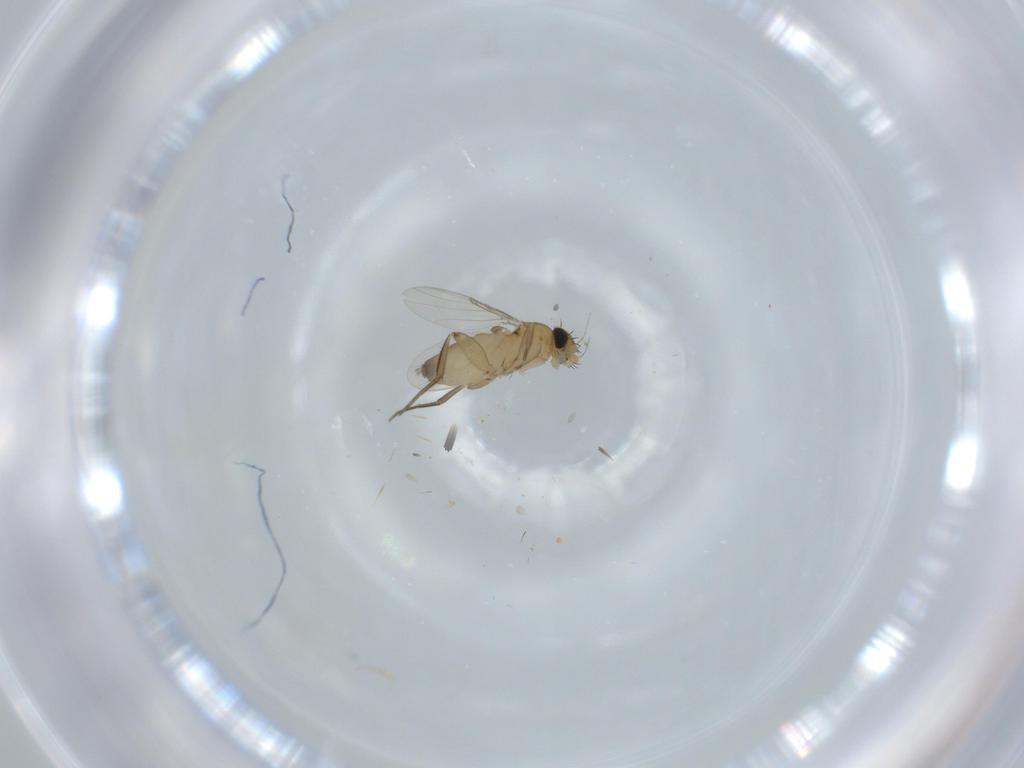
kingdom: Animalia
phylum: Arthropoda
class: Insecta
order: Diptera
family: Phoridae
